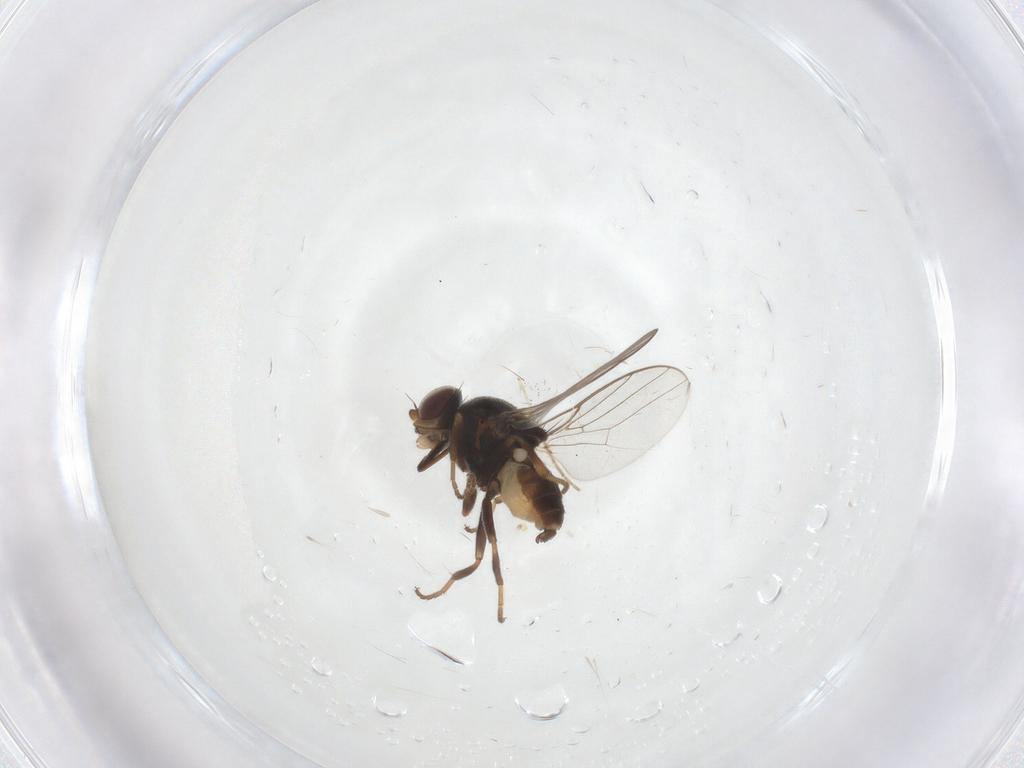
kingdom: Animalia
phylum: Arthropoda
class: Insecta
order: Diptera
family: Chloropidae
